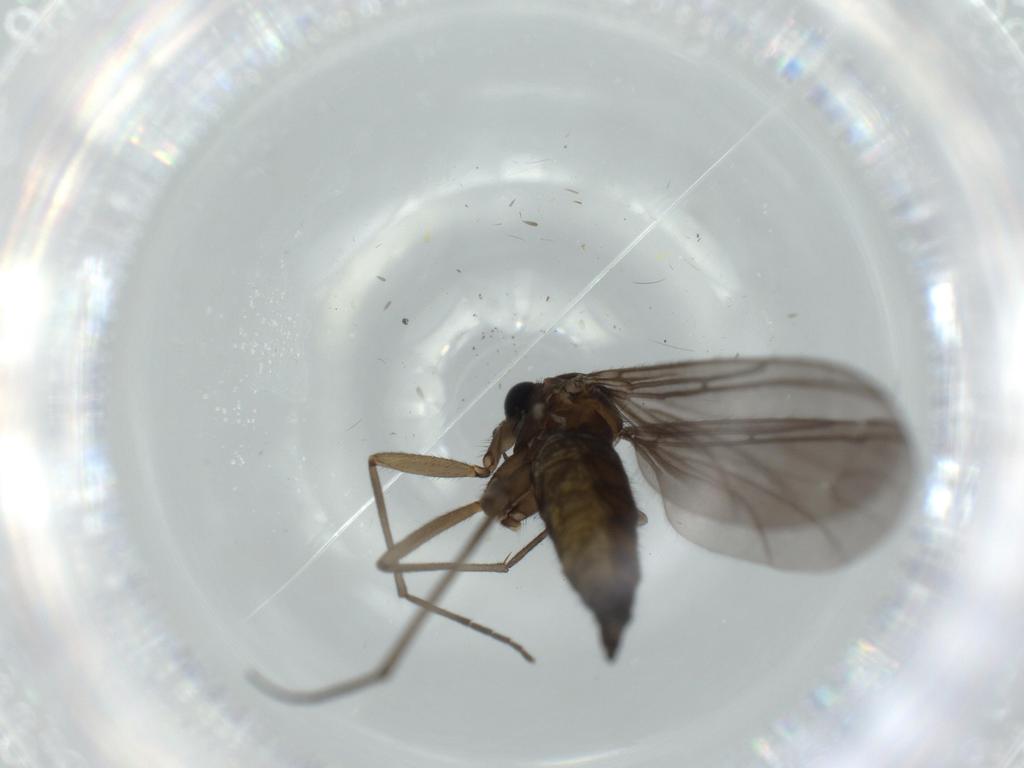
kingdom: Animalia
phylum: Arthropoda
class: Insecta
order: Diptera
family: Sciaridae
